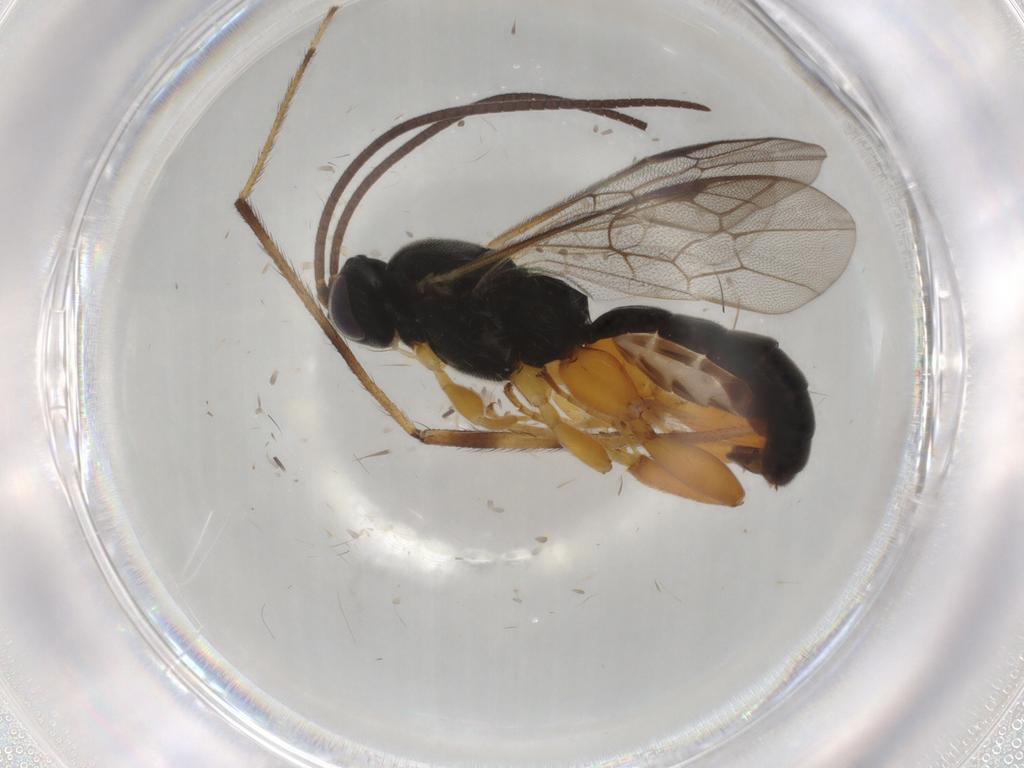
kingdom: Animalia
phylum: Arthropoda
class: Insecta
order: Hymenoptera
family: Ichneumonidae
